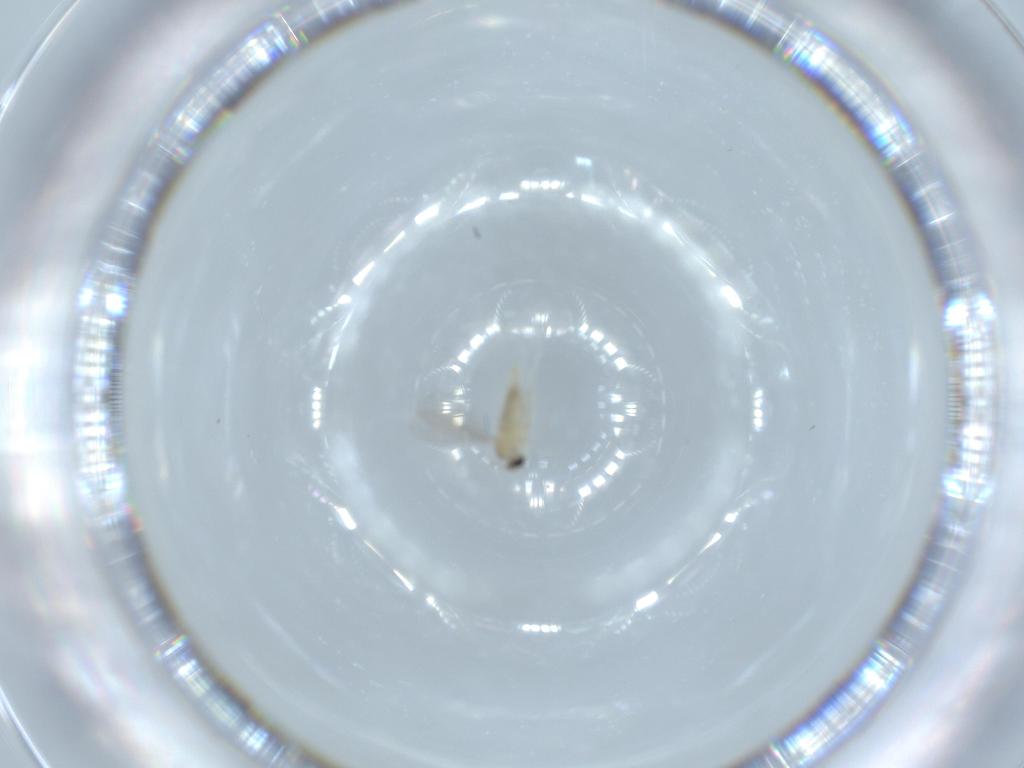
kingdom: Animalia
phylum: Arthropoda
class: Insecta
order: Diptera
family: Cecidomyiidae
